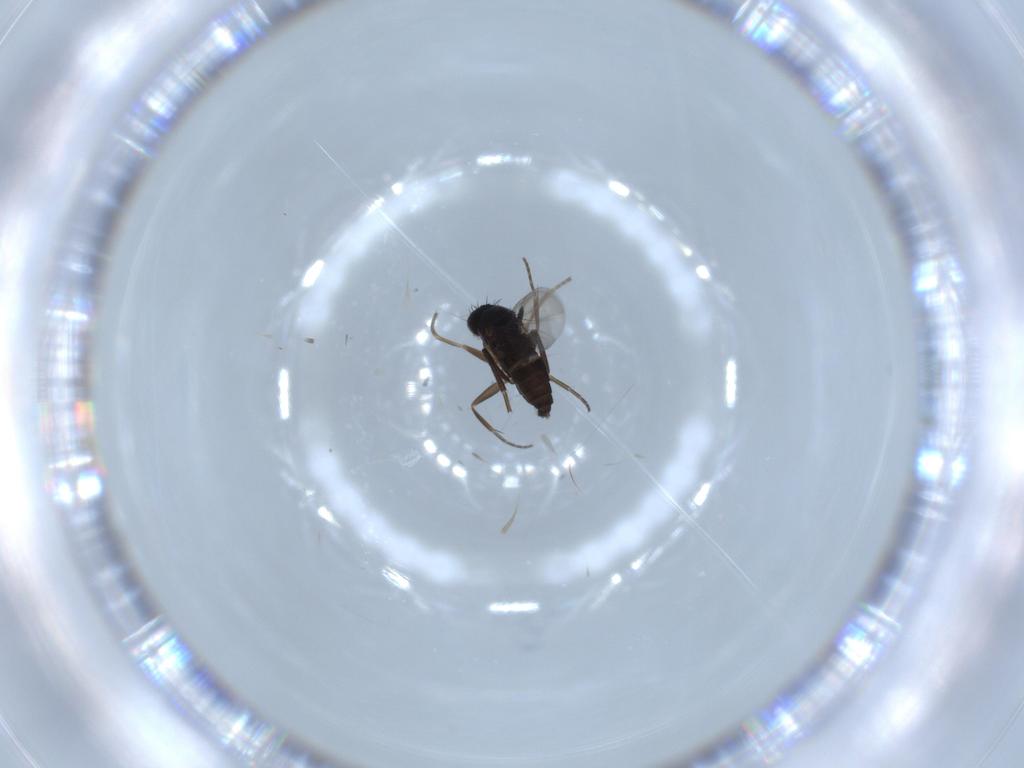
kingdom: Animalia
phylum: Arthropoda
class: Insecta
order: Diptera
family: Phoridae
